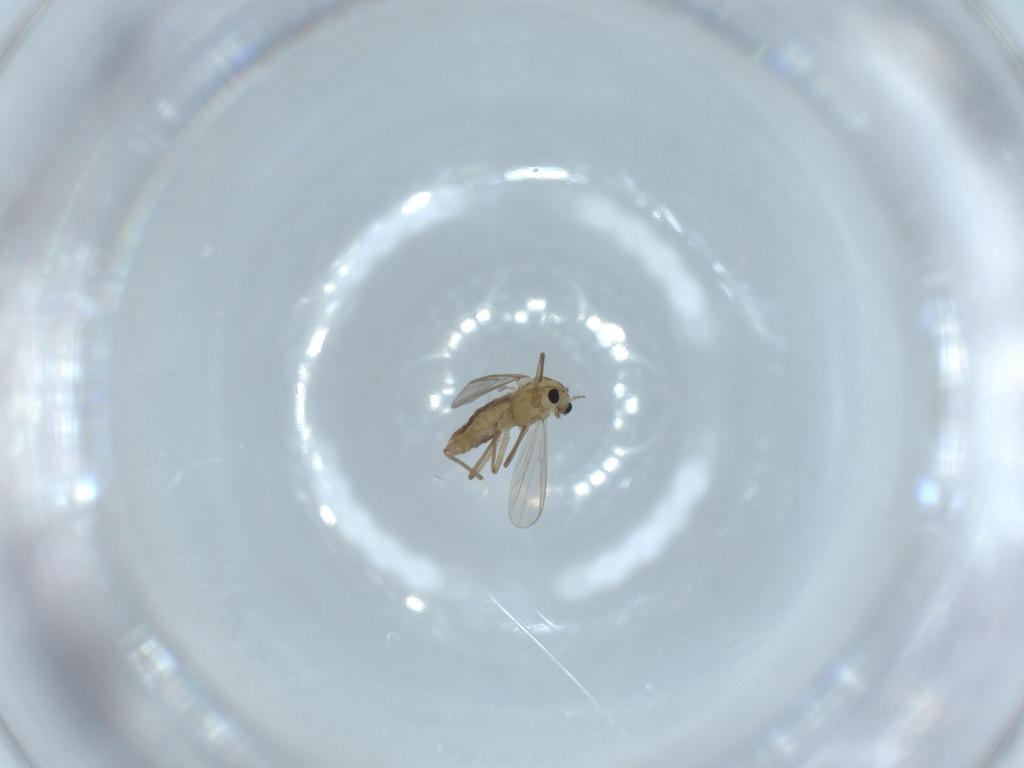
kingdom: Animalia
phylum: Arthropoda
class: Insecta
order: Diptera
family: Chironomidae
